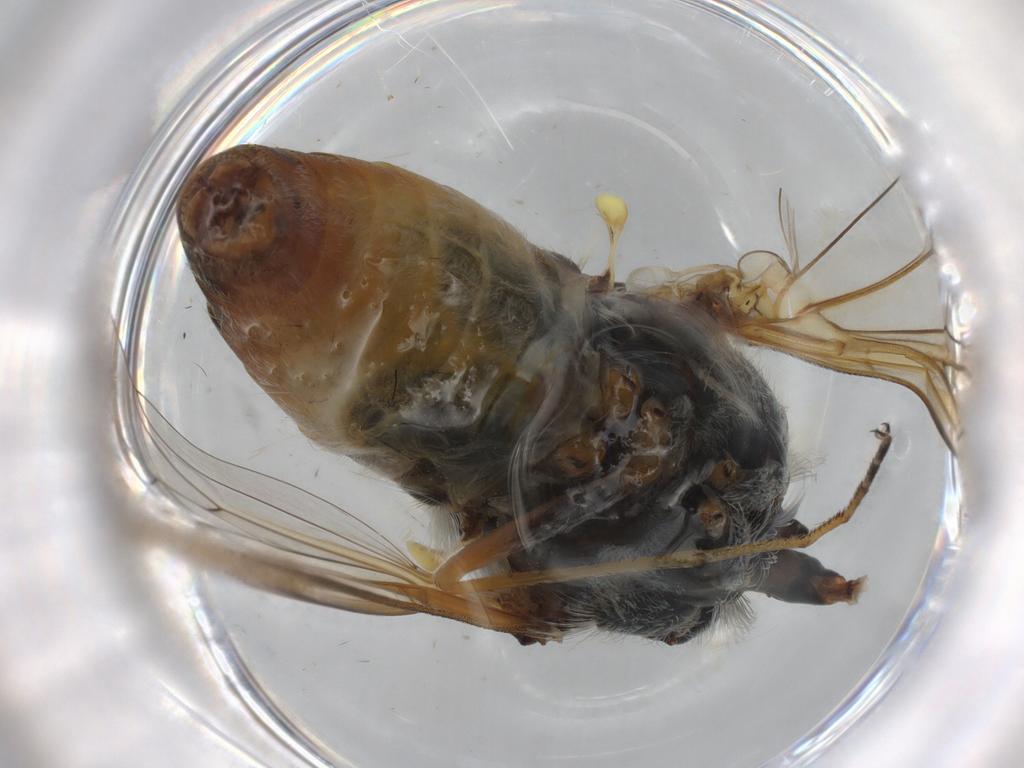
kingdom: Animalia
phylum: Arthropoda
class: Insecta
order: Diptera
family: Bombyliidae
